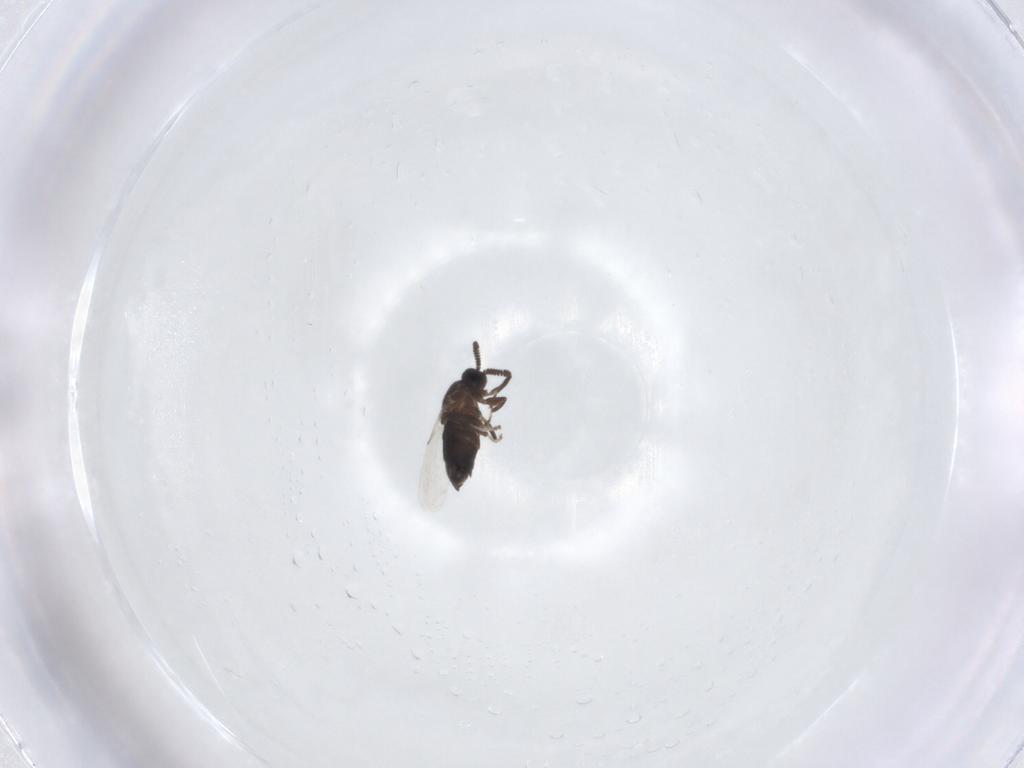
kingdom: Animalia
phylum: Arthropoda
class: Insecta
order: Diptera
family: Scatopsidae
